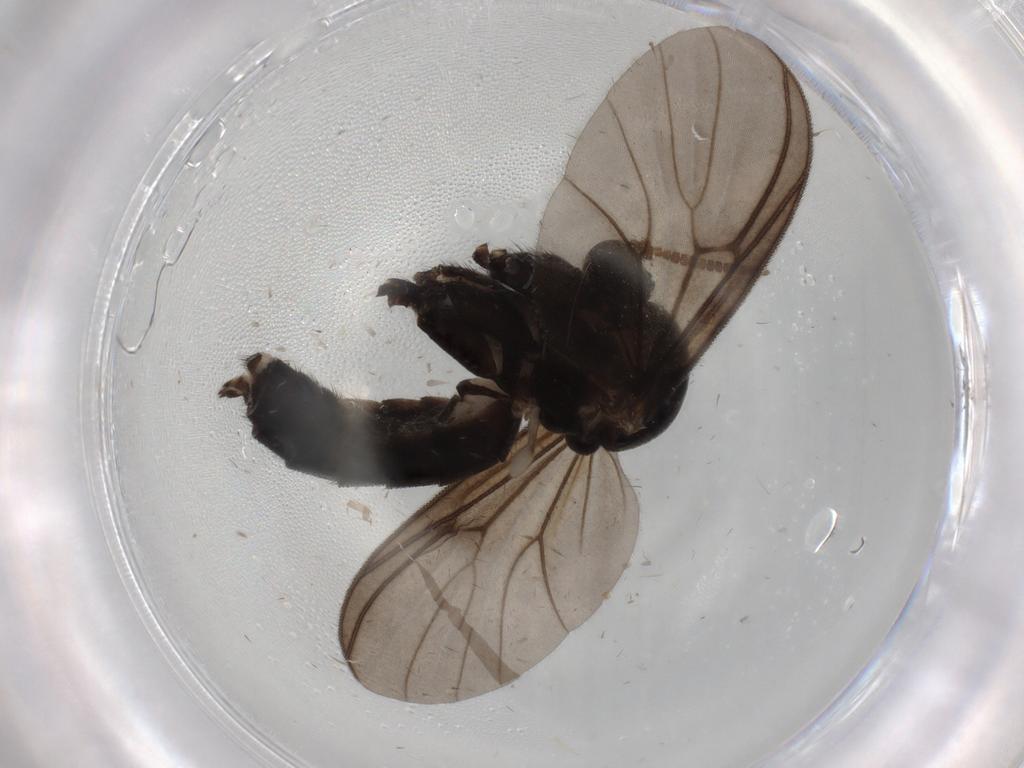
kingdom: Animalia
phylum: Arthropoda
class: Insecta
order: Diptera
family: Mycetophilidae
